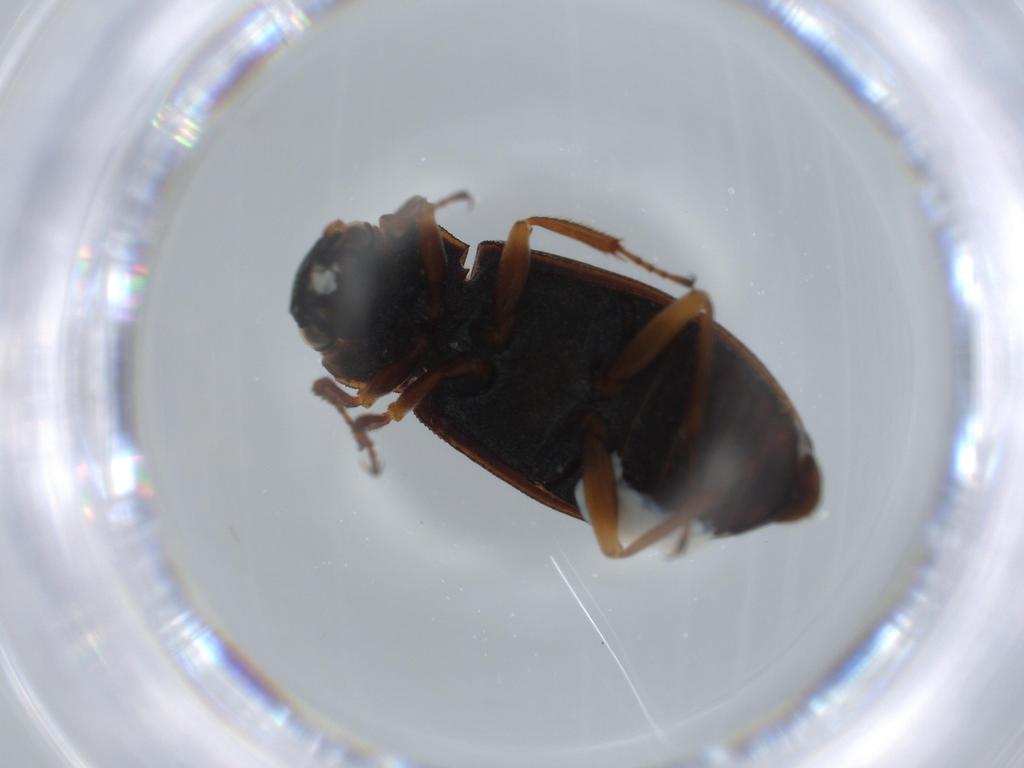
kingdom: Animalia
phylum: Arthropoda
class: Insecta
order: Coleoptera
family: Helophoridae
